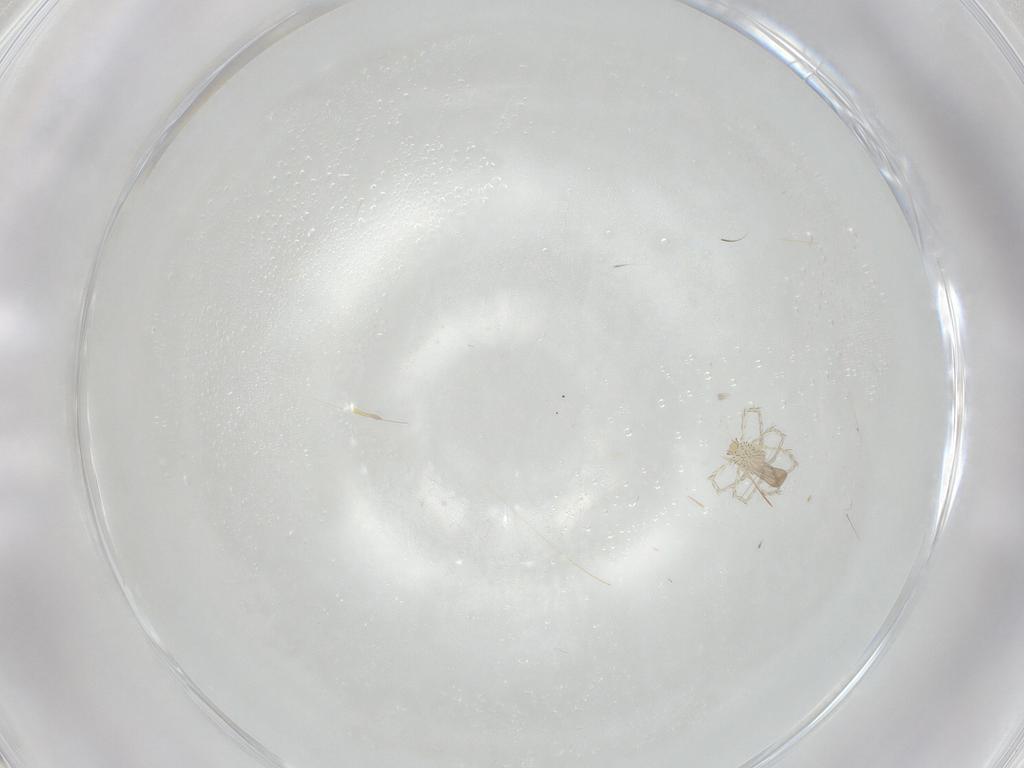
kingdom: Animalia
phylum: Arthropoda
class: Arachnida
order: Trombidiformes
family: Erythraeidae
